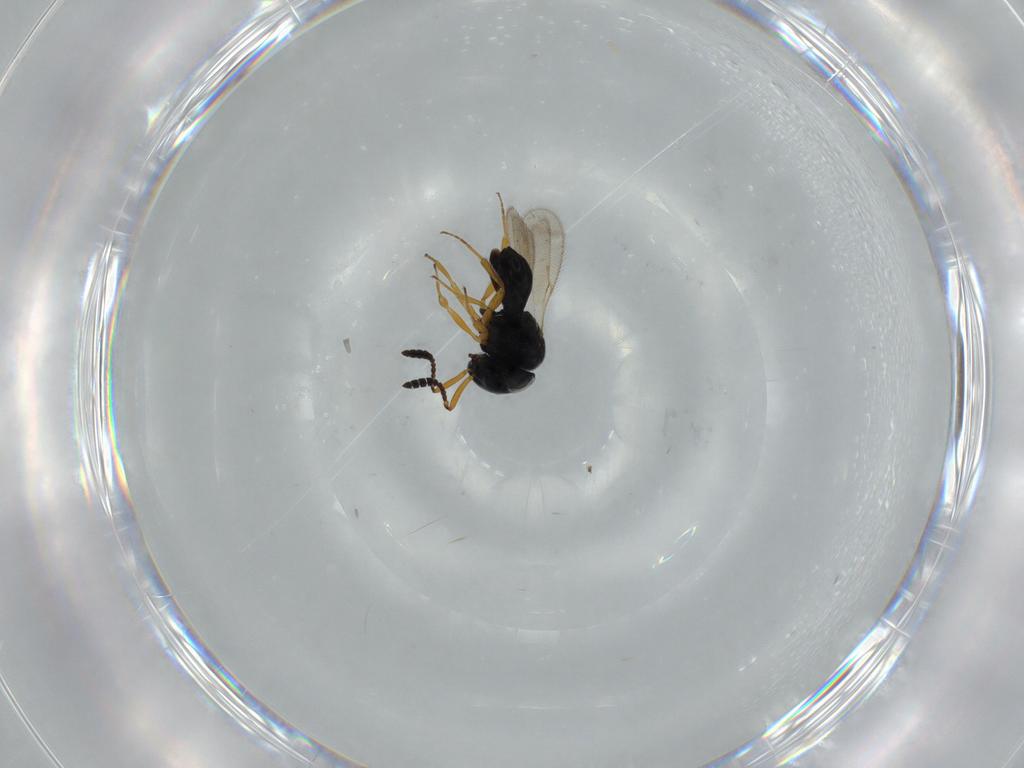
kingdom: Animalia
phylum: Arthropoda
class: Insecta
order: Hymenoptera
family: Scelionidae
